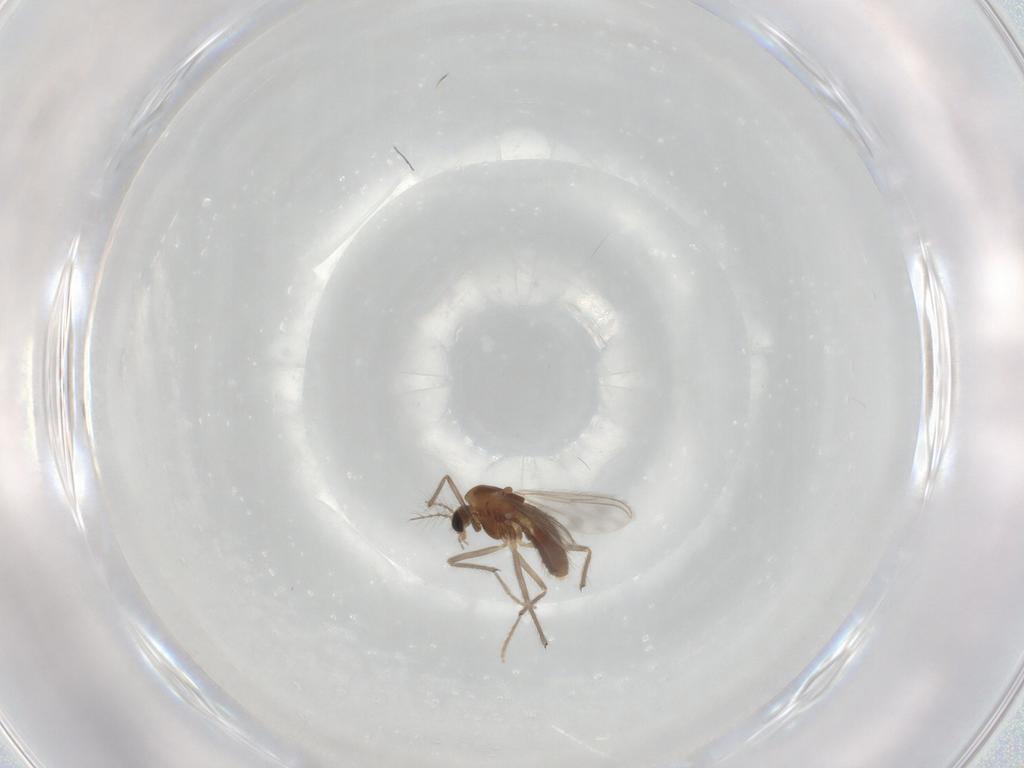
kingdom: Animalia
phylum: Arthropoda
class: Insecta
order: Diptera
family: Chironomidae
